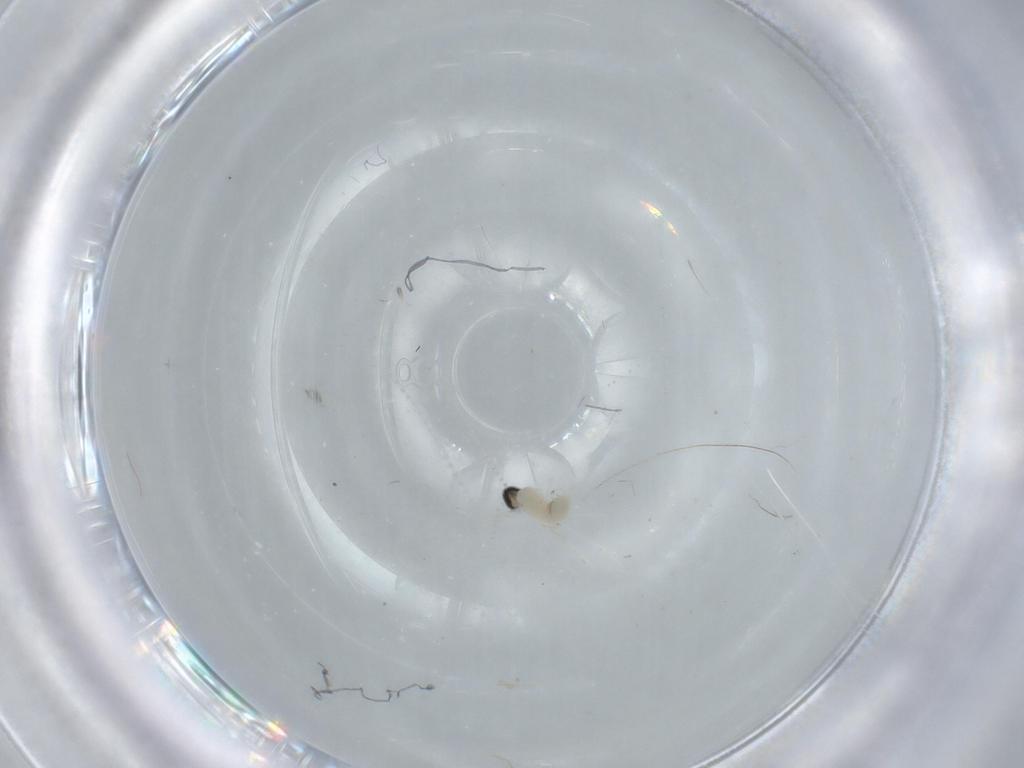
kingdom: Animalia
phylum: Arthropoda
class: Insecta
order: Diptera
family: Cecidomyiidae
